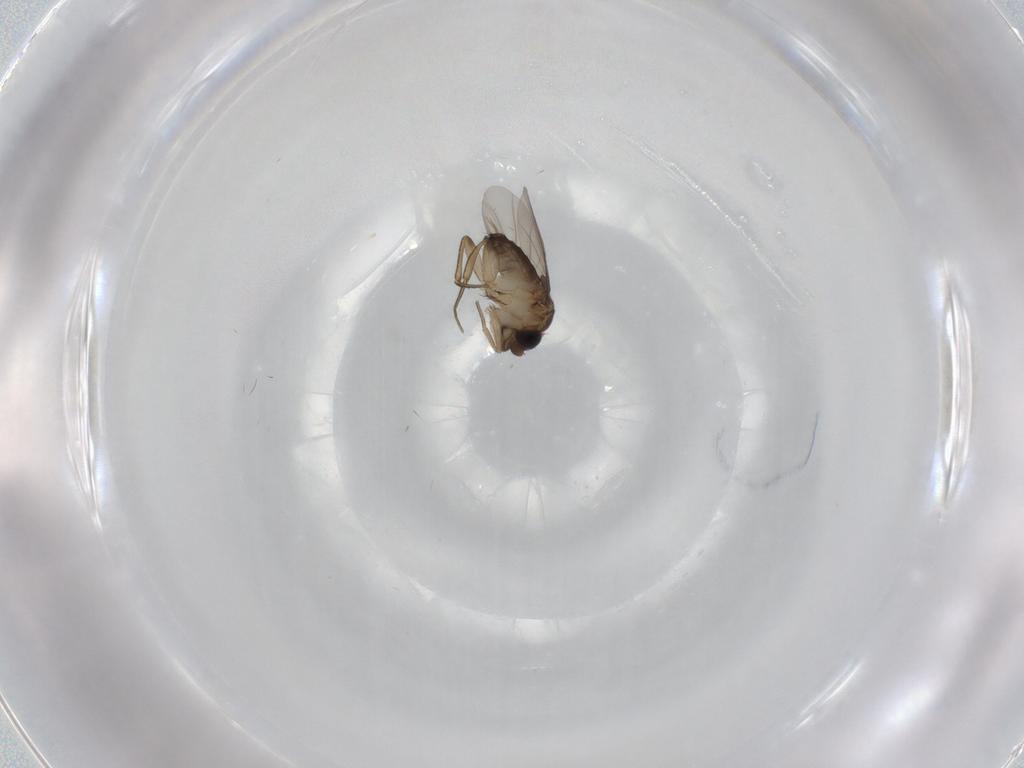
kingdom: Animalia
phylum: Arthropoda
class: Insecta
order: Diptera
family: Phoridae
